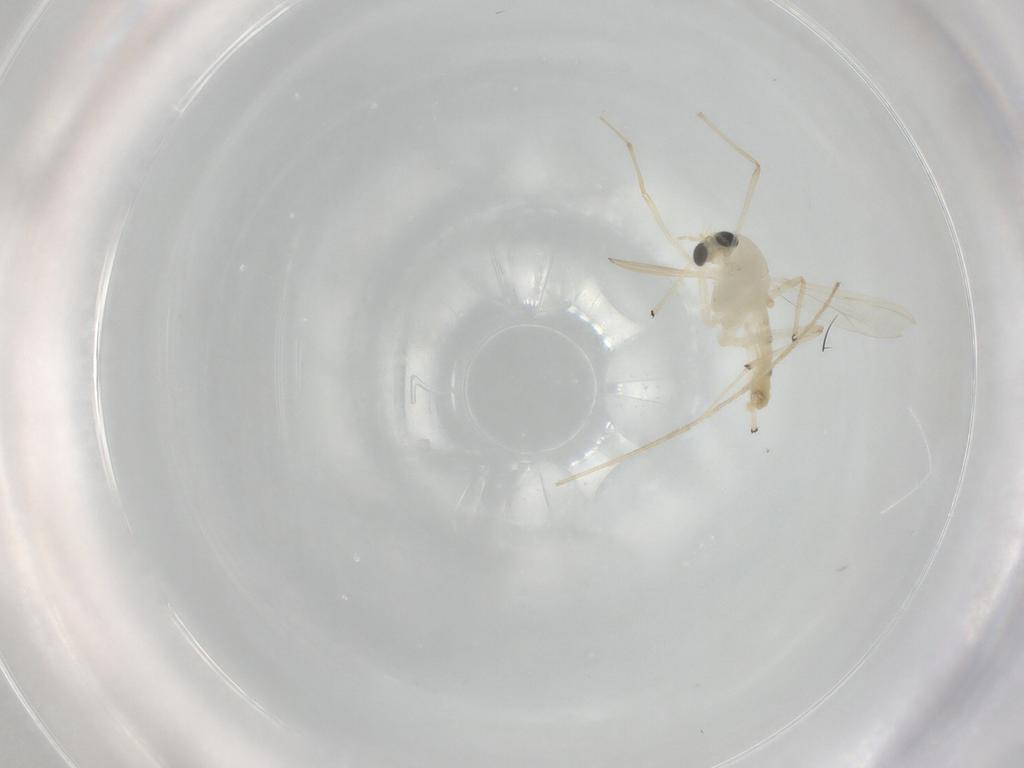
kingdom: Animalia
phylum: Arthropoda
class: Insecta
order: Diptera
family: Chironomidae
